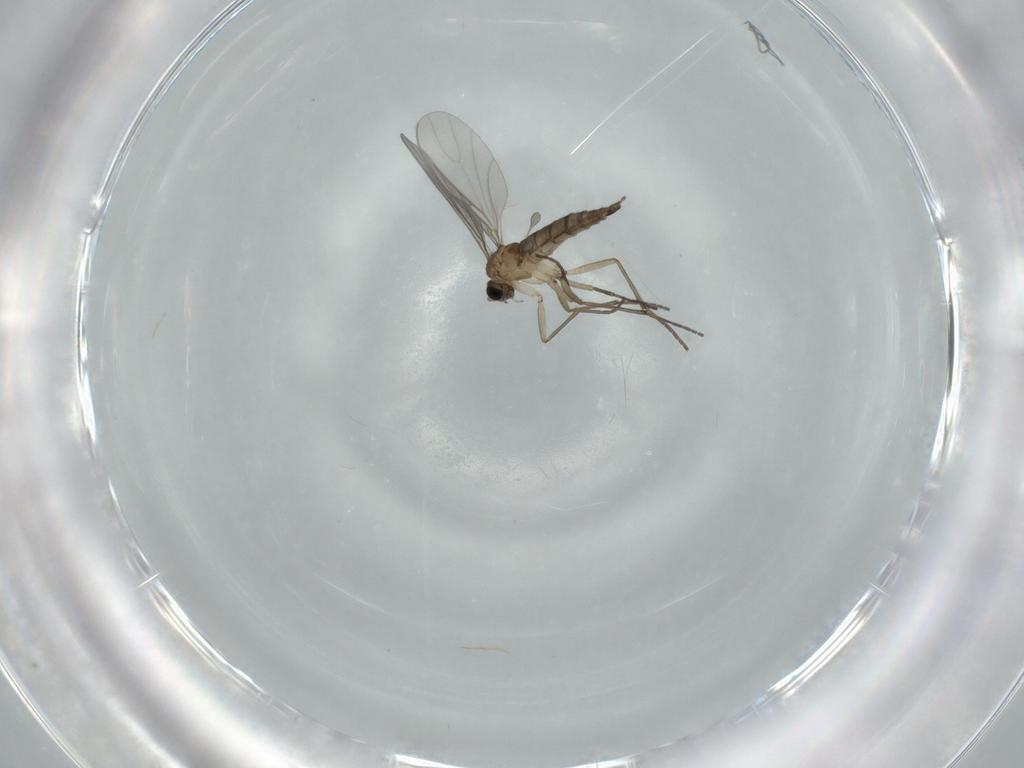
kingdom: Animalia
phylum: Arthropoda
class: Insecta
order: Diptera
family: Sciaridae
